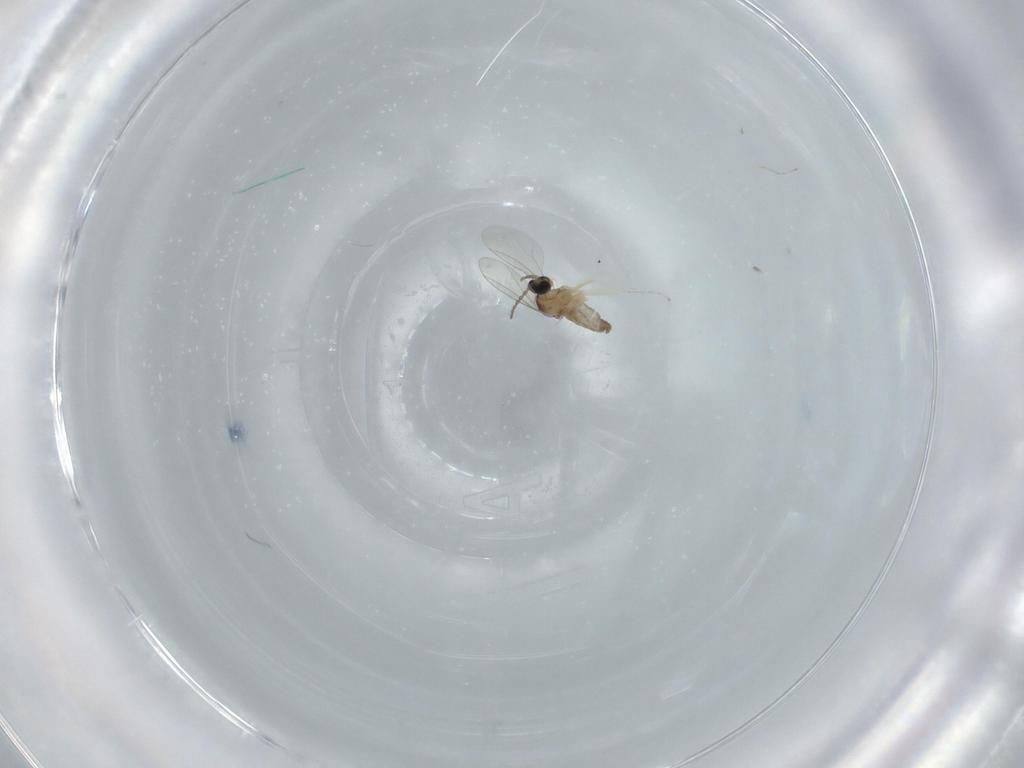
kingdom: Animalia
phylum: Arthropoda
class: Insecta
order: Diptera
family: Cecidomyiidae
